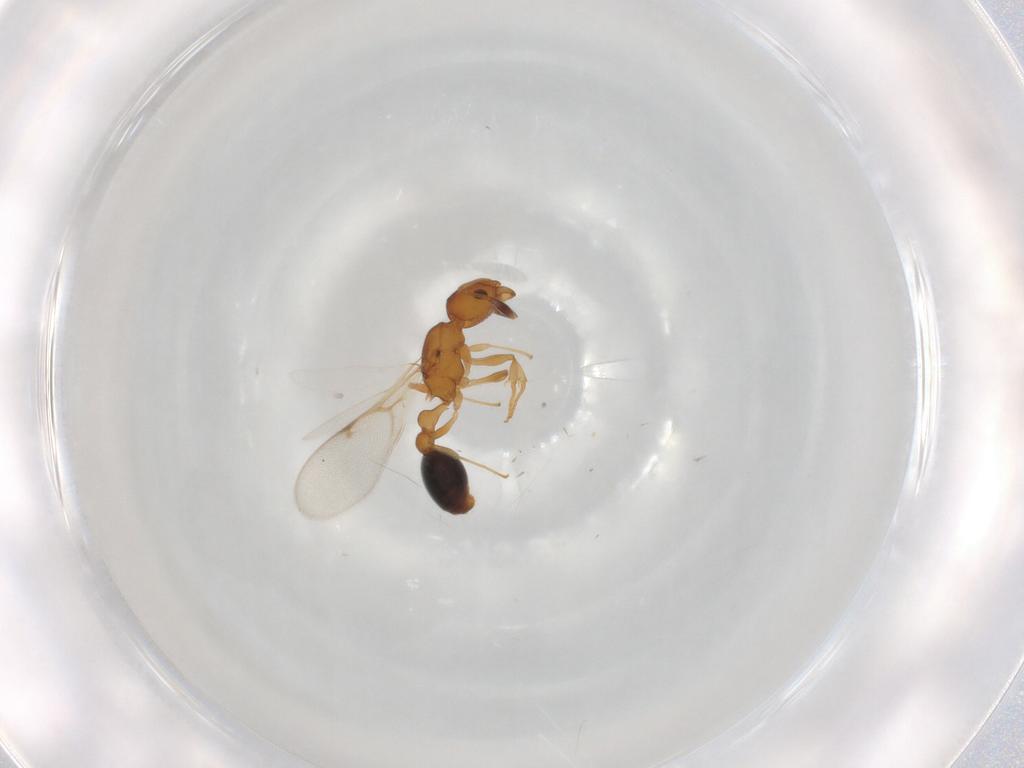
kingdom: Animalia
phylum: Arthropoda
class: Insecta
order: Hymenoptera
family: Formicidae
